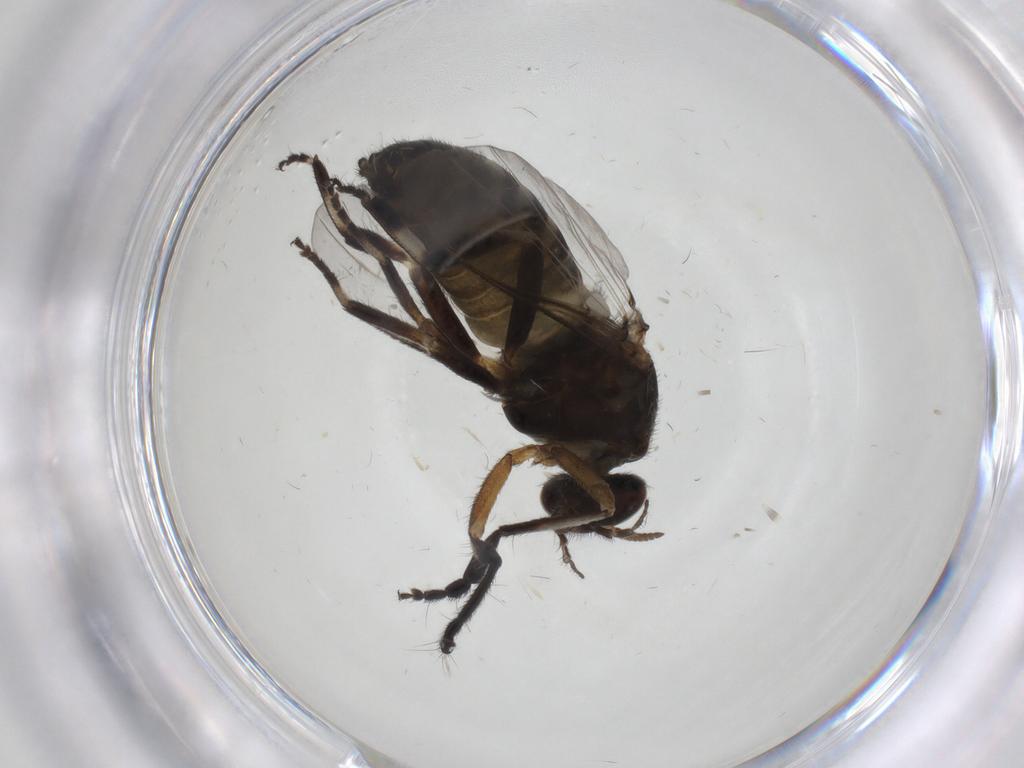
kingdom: Animalia
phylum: Arthropoda
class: Insecta
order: Diptera
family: Simuliidae
